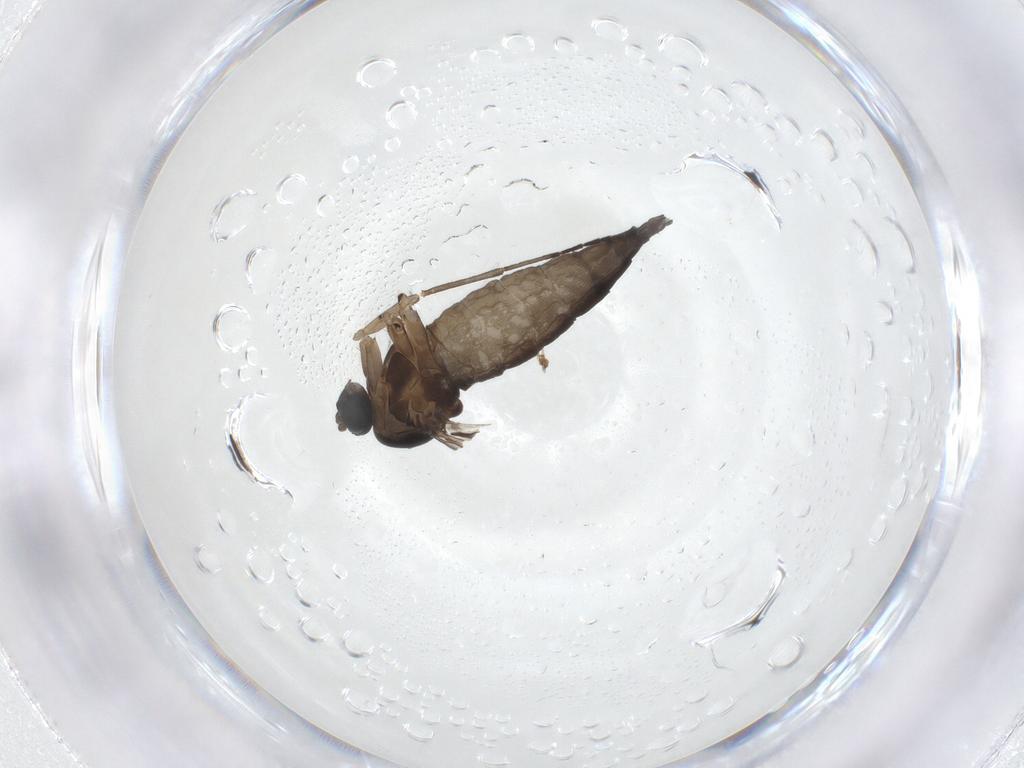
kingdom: Animalia
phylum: Arthropoda
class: Insecta
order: Diptera
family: Sciaridae
